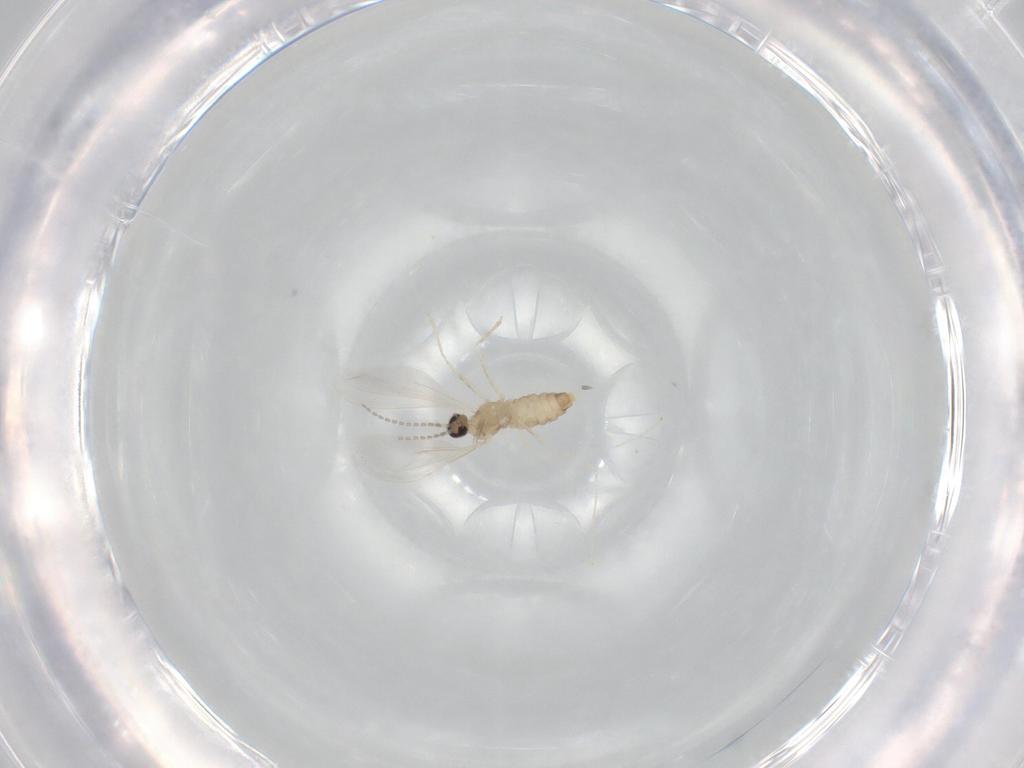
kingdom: Animalia
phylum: Arthropoda
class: Insecta
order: Diptera
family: Cecidomyiidae
